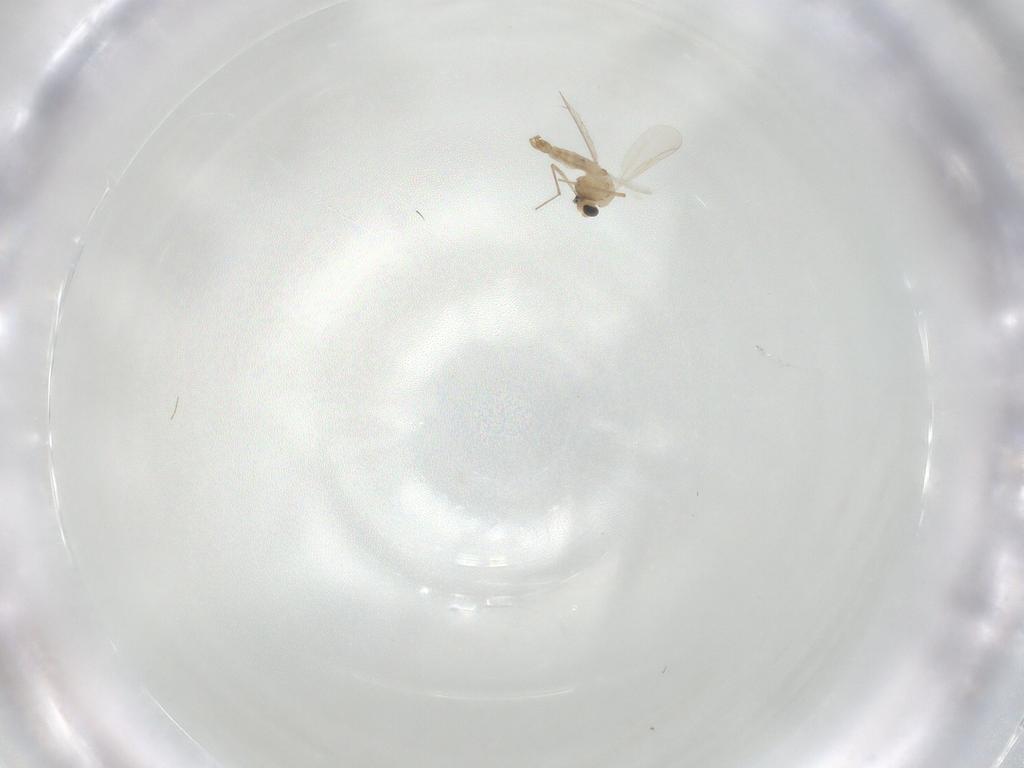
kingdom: Animalia
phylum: Arthropoda
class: Insecta
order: Diptera
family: Chironomidae
